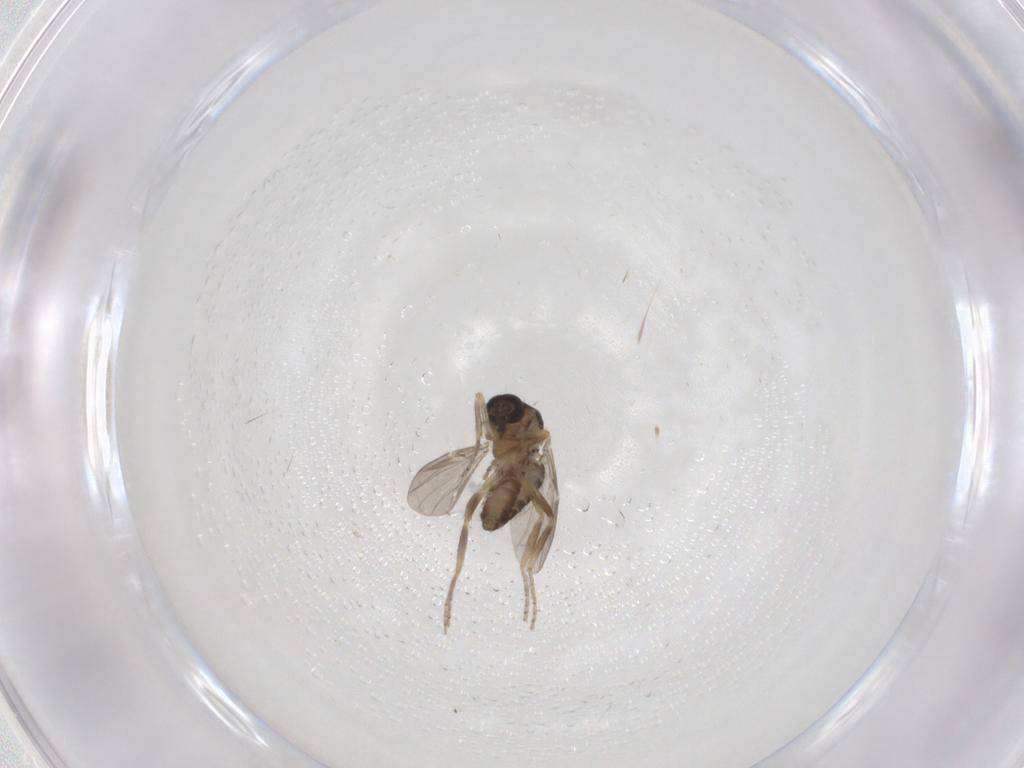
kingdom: Animalia
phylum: Arthropoda
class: Insecta
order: Diptera
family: Ceratopogonidae
